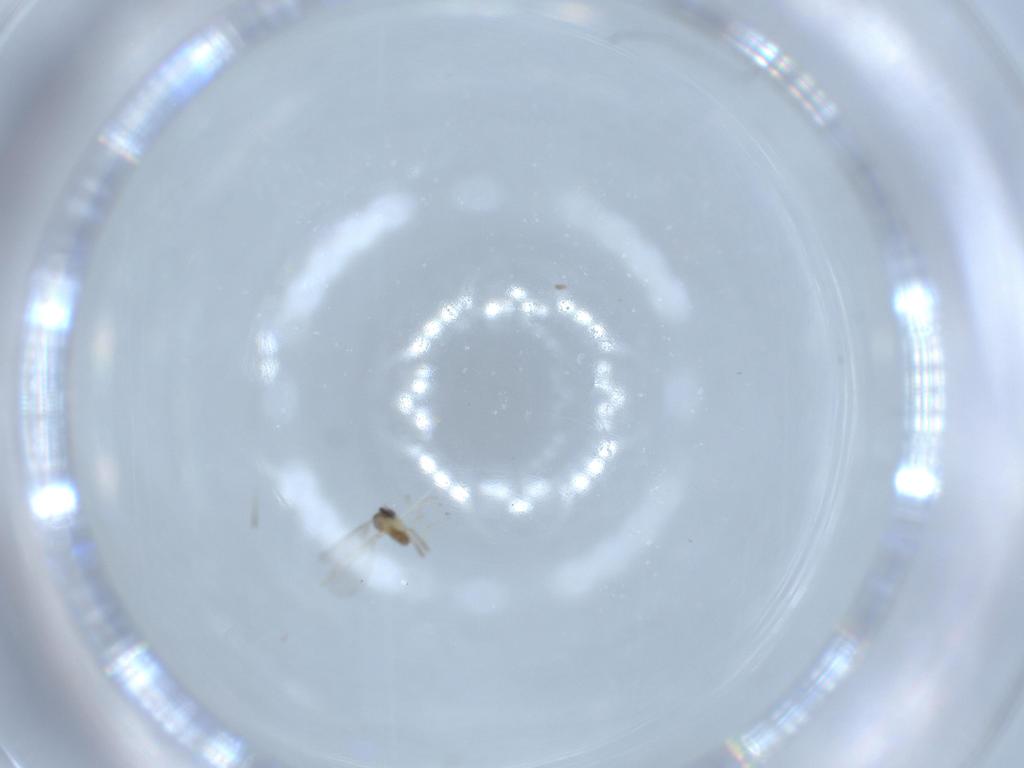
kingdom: Animalia
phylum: Arthropoda
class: Insecta
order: Diptera
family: Cecidomyiidae
